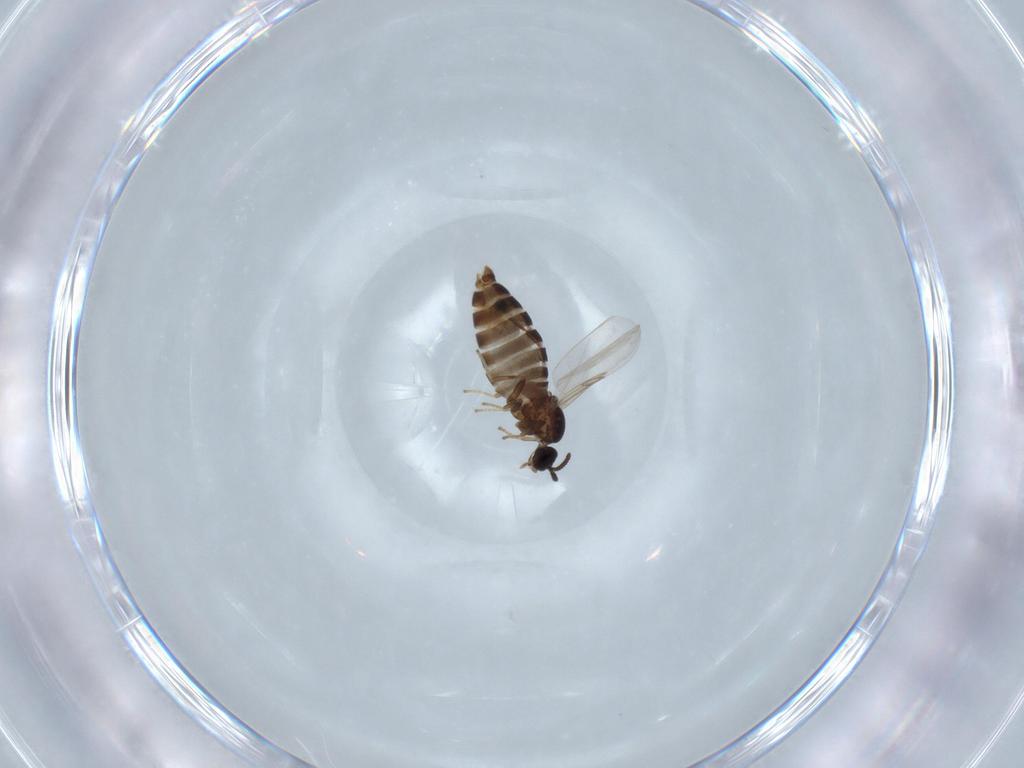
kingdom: Animalia
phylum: Arthropoda
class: Insecta
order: Diptera
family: Scatopsidae
